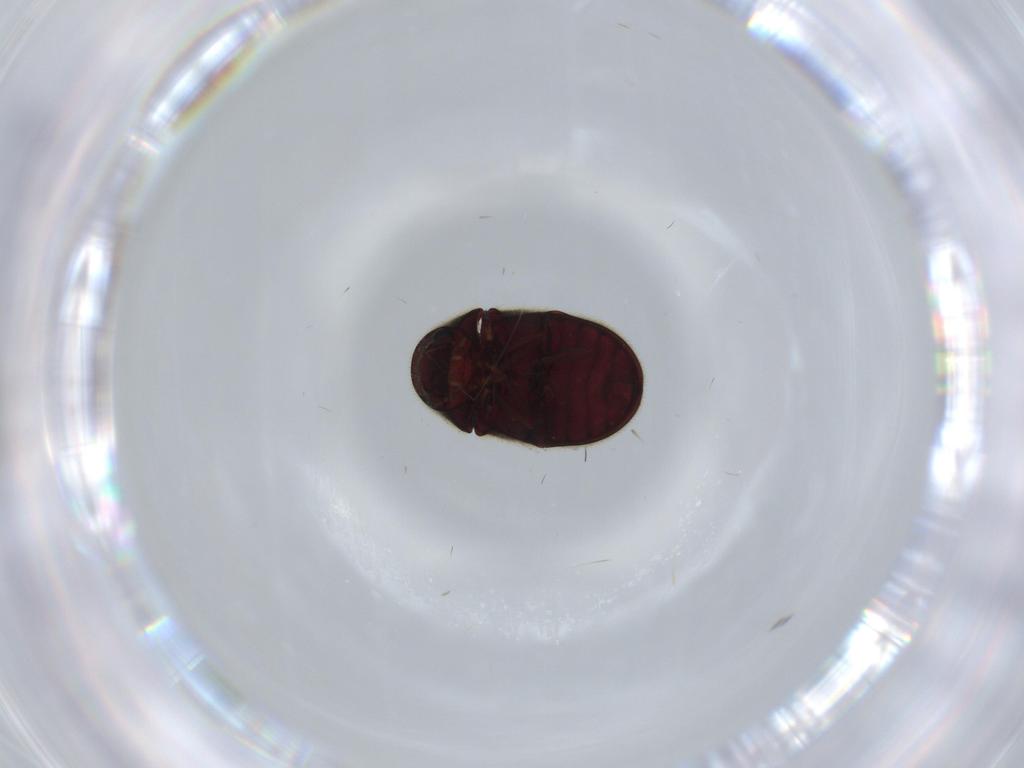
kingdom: Animalia
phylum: Arthropoda
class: Insecta
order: Coleoptera
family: Ptinidae
